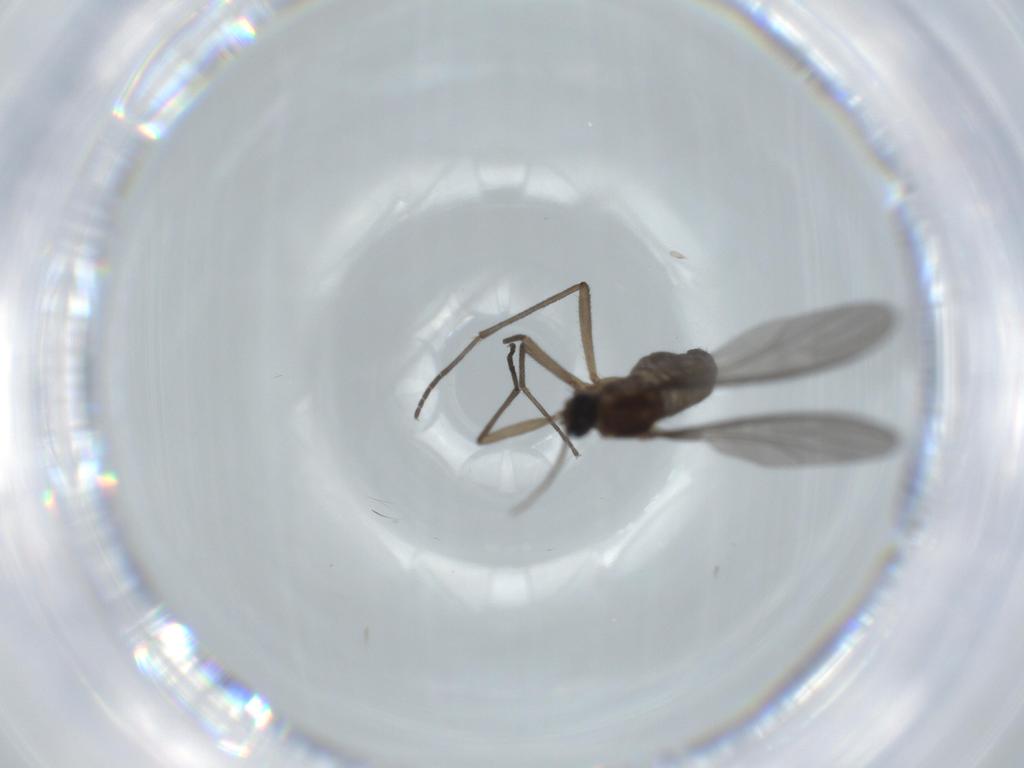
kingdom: Animalia
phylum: Arthropoda
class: Insecta
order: Diptera
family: Sciaridae
